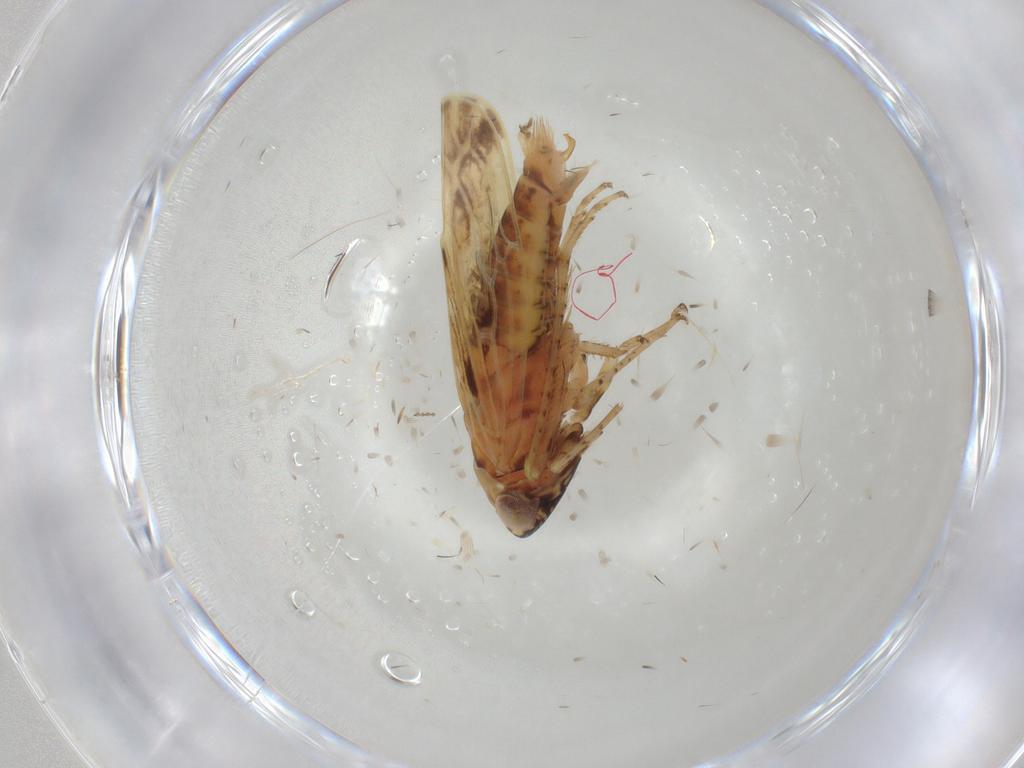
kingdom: Animalia
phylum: Arthropoda
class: Insecta
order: Hemiptera
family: Cicadellidae
